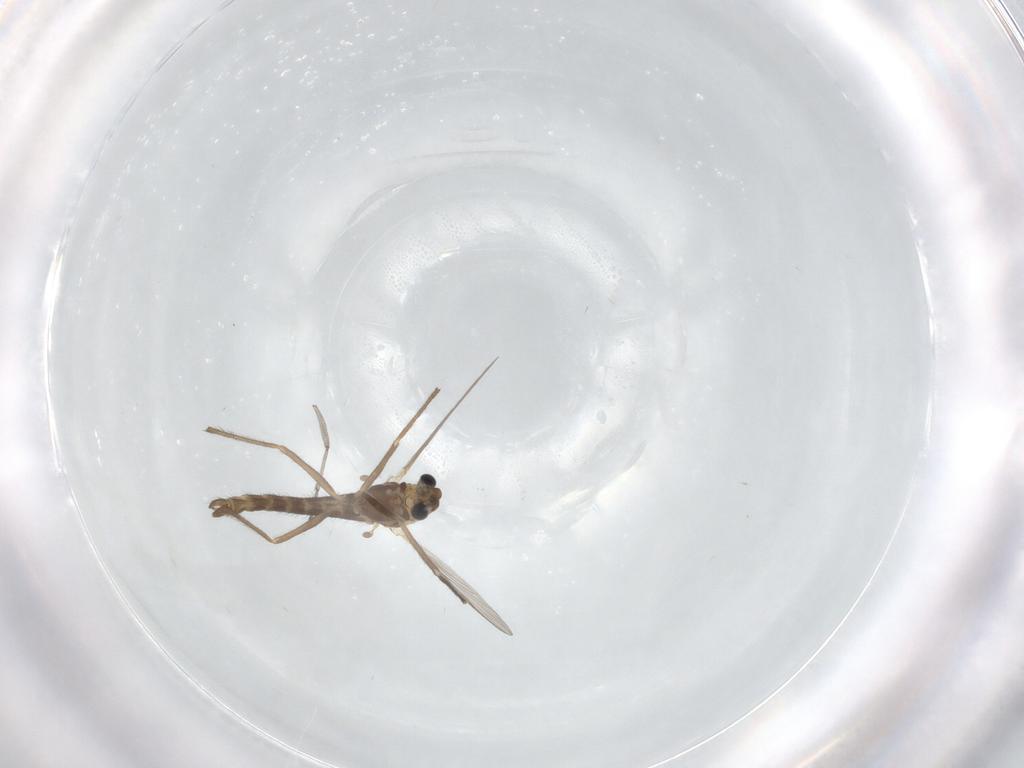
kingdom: Animalia
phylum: Arthropoda
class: Insecta
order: Diptera
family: Chironomidae
